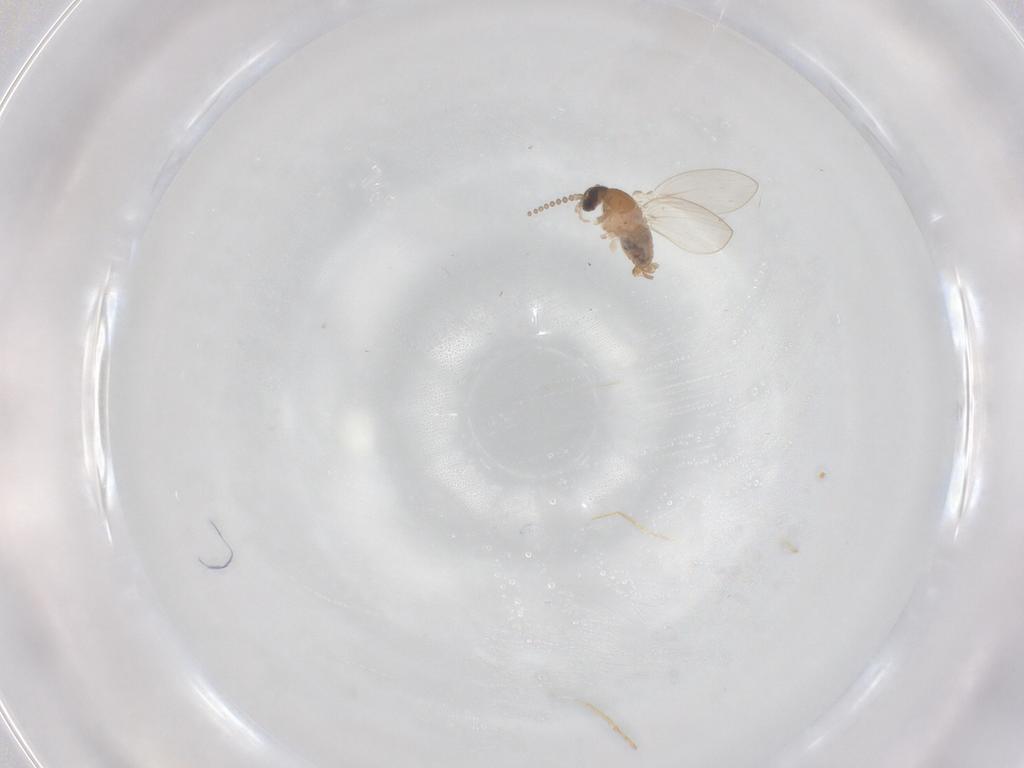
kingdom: Animalia
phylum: Arthropoda
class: Insecta
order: Diptera
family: Psychodidae
